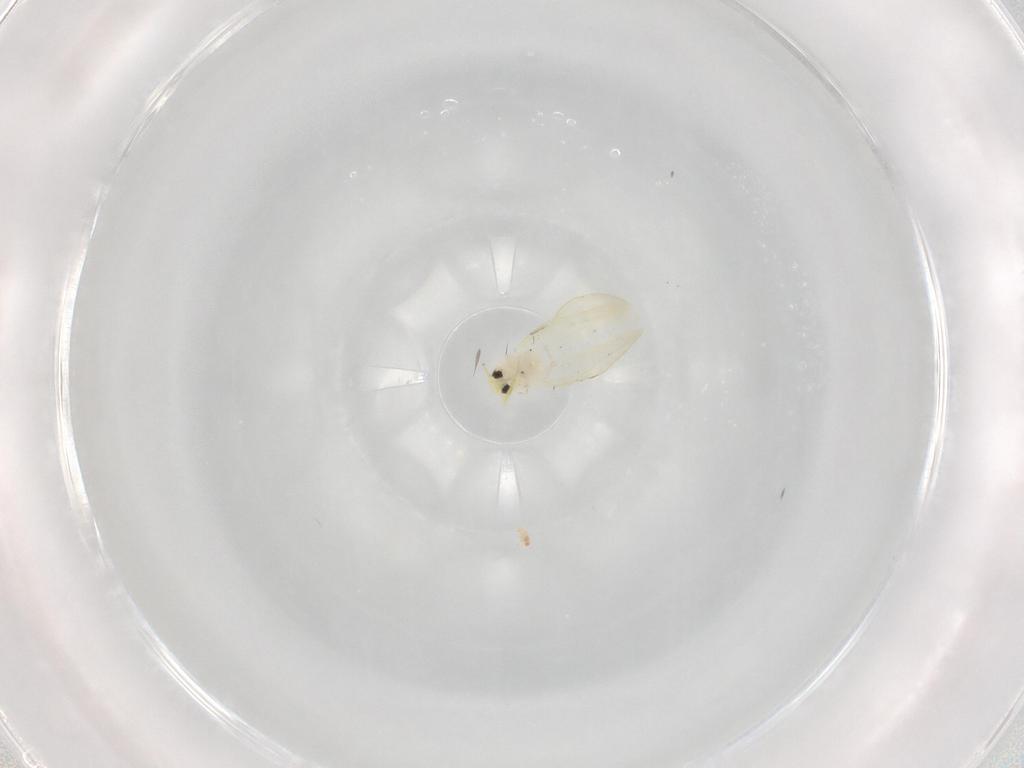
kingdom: Animalia
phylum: Arthropoda
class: Insecta
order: Hemiptera
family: Aleyrodidae
